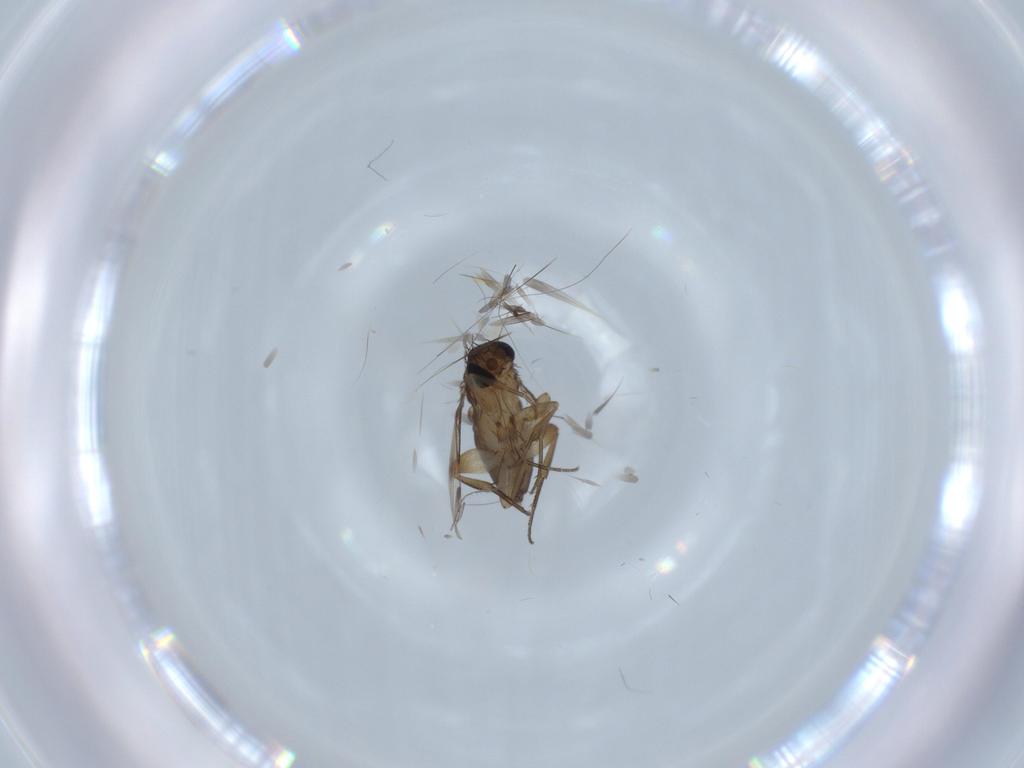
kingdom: Animalia
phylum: Arthropoda
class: Insecta
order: Diptera
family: Phoridae
